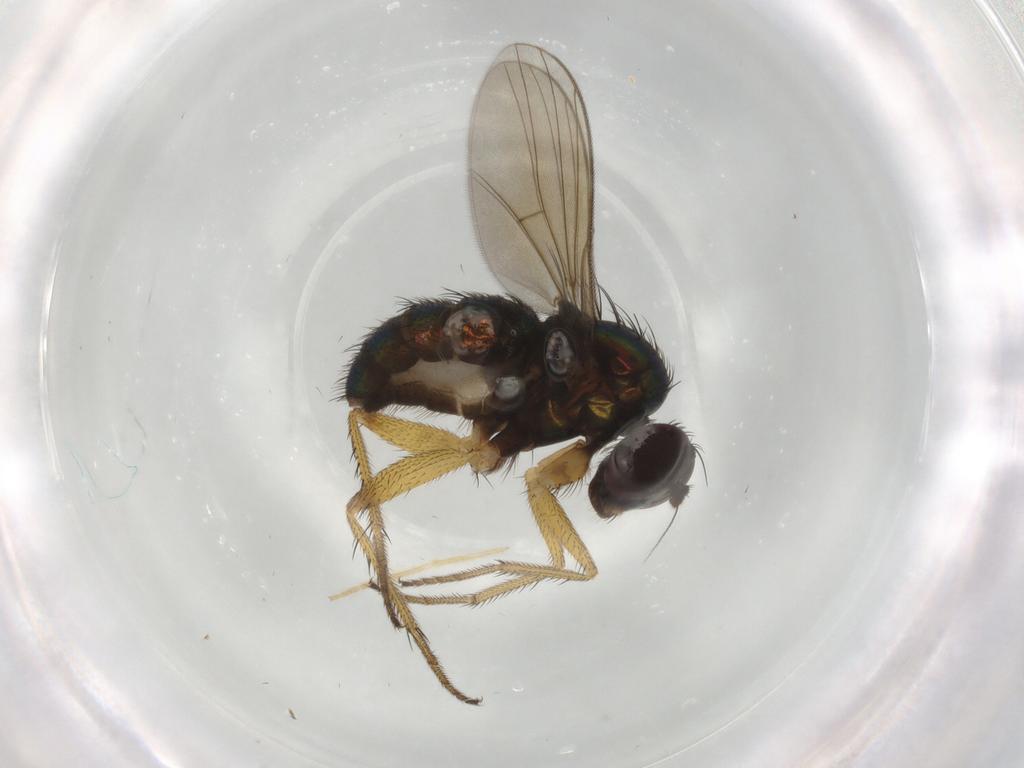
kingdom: Animalia
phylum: Arthropoda
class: Insecta
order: Diptera
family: Dolichopodidae
